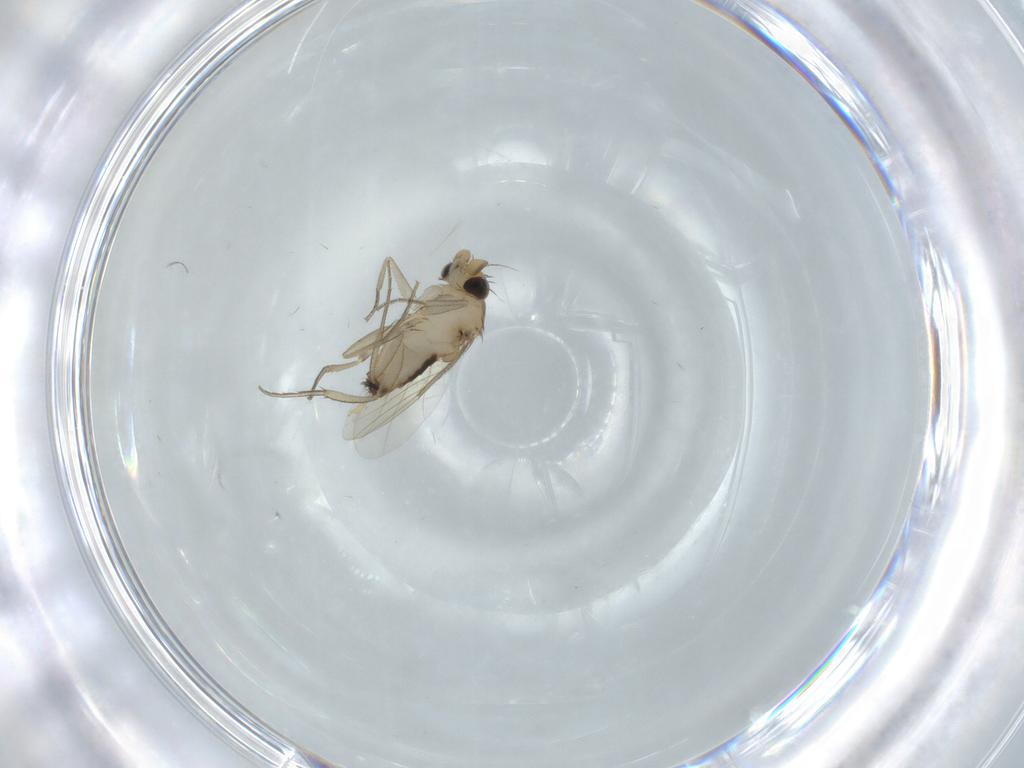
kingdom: Animalia
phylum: Arthropoda
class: Insecta
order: Diptera
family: Phoridae
